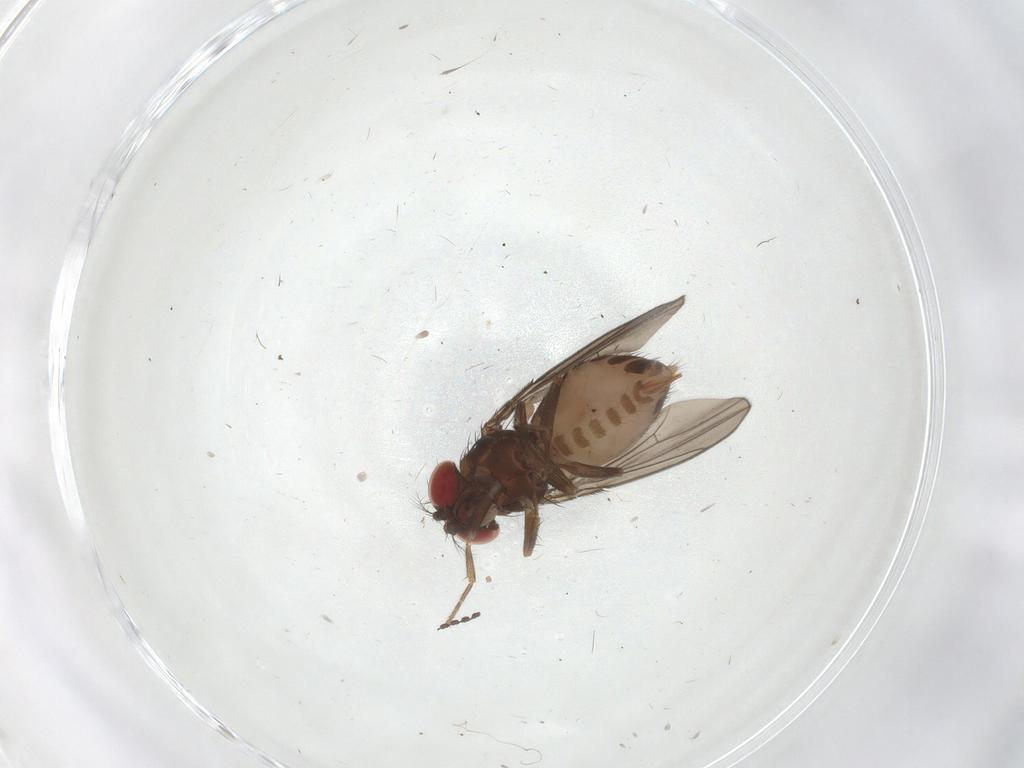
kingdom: Animalia
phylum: Arthropoda
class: Insecta
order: Diptera
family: Drosophilidae
